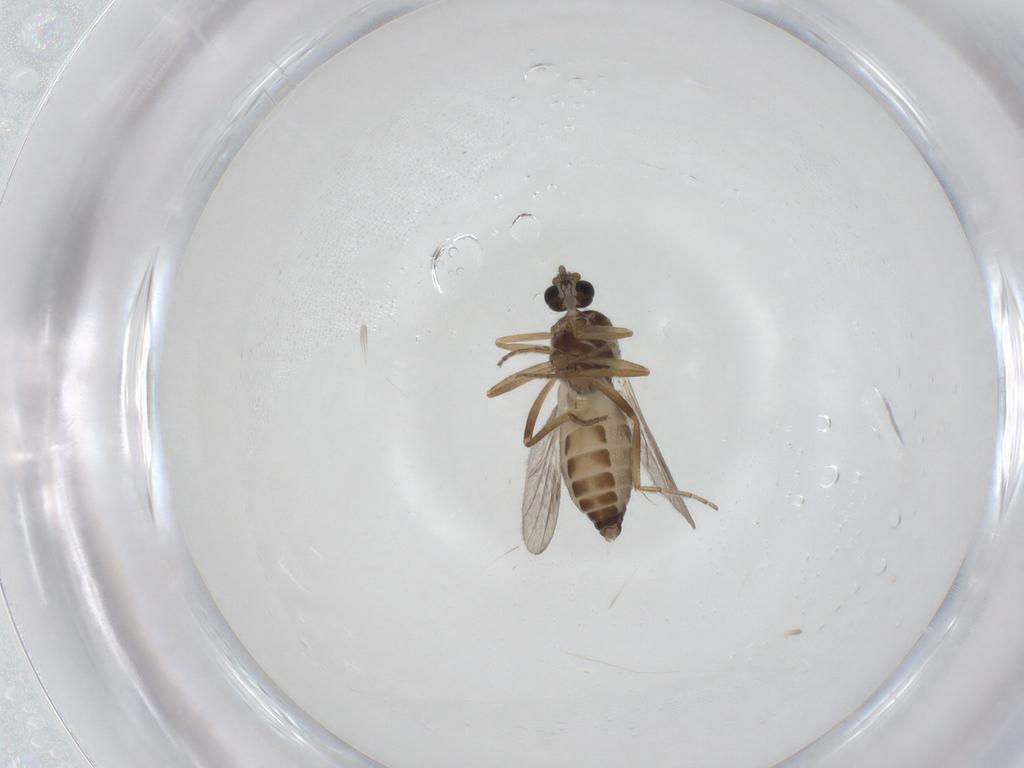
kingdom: Animalia
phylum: Arthropoda
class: Insecta
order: Diptera
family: Ceratopogonidae
